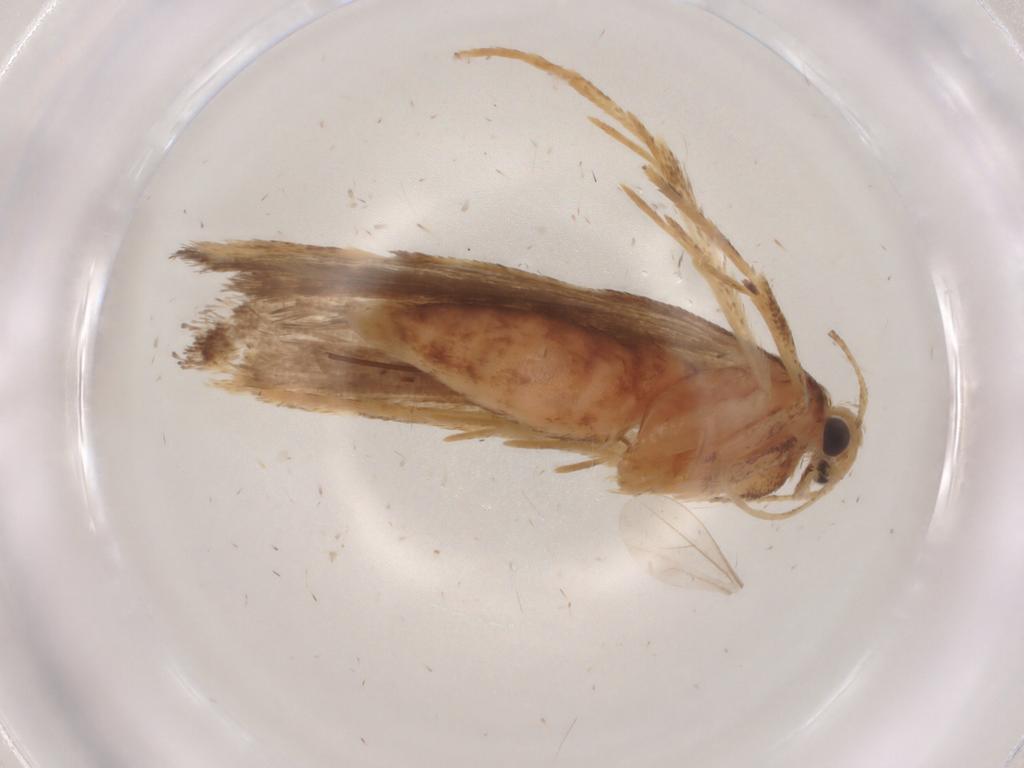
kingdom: Animalia
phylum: Arthropoda
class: Insecta
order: Lepidoptera
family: Gelechiidae
